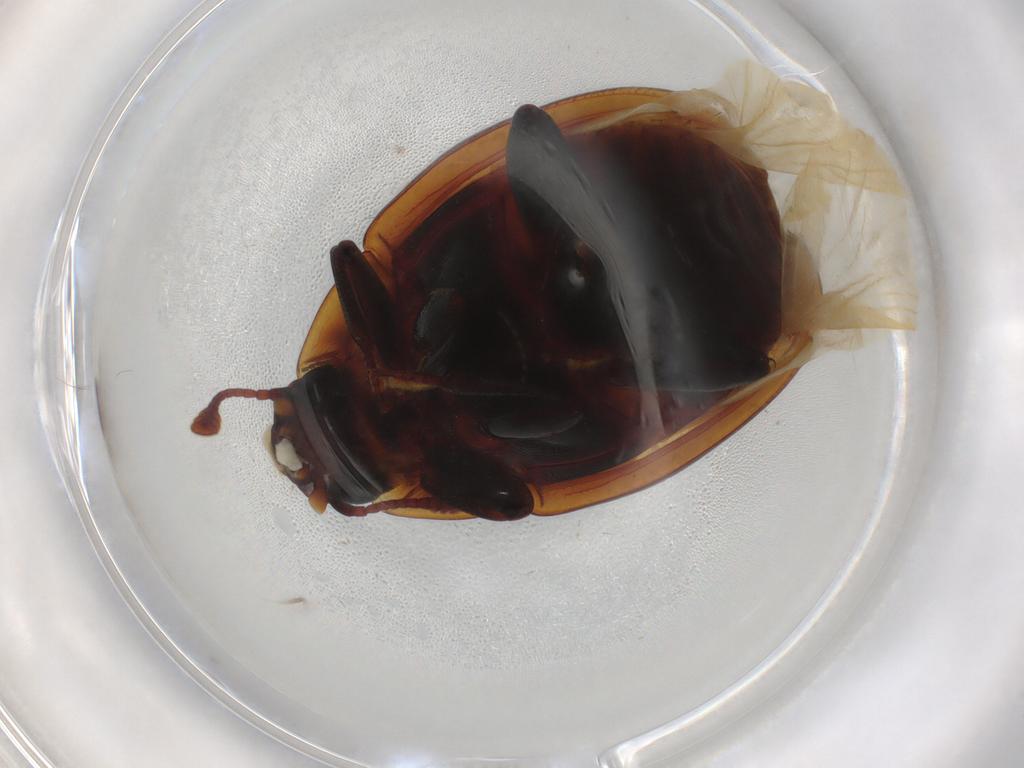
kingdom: Animalia
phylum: Arthropoda
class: Insecta
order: Coleoptera
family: Zopheridae
